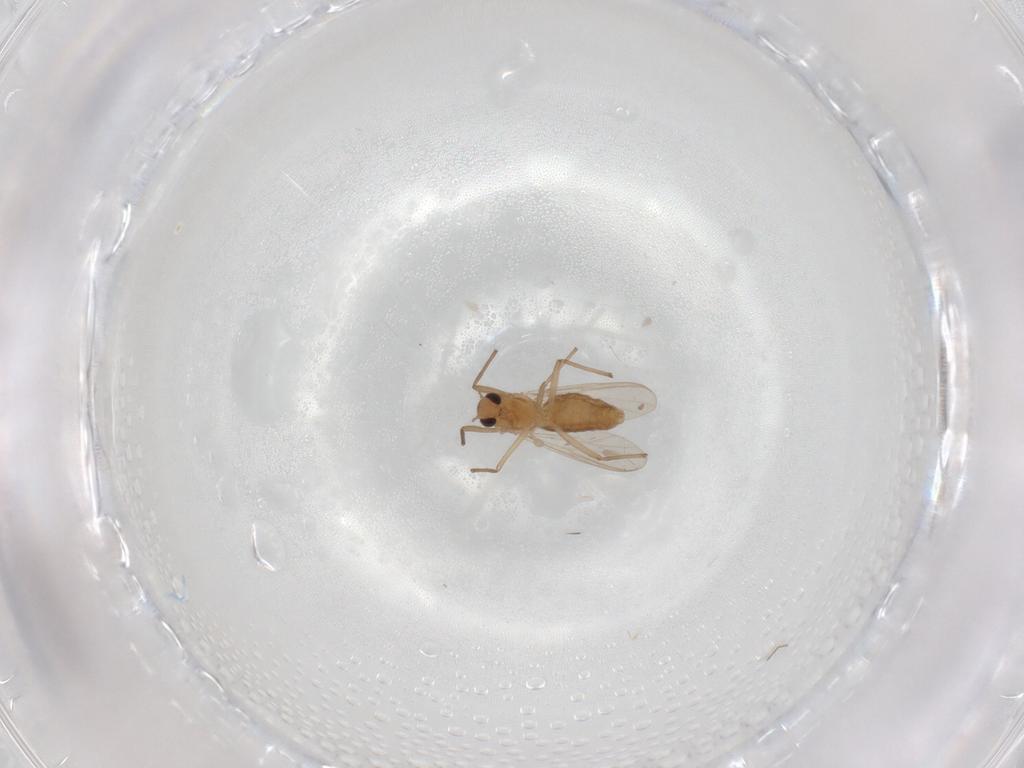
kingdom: Animalia
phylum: Arthropoda
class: Insecta
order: Diptera
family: Chironomidae
